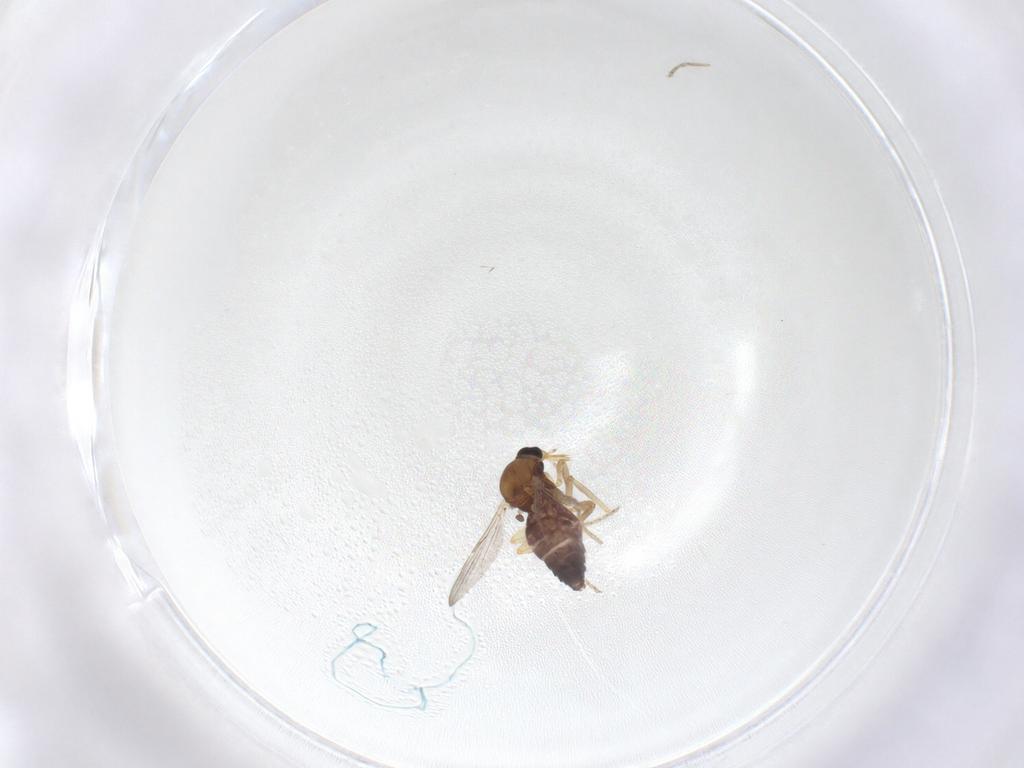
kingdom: Animalia
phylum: Arthropoda
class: Insecta
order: Diptera
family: Ceratopogonidae
